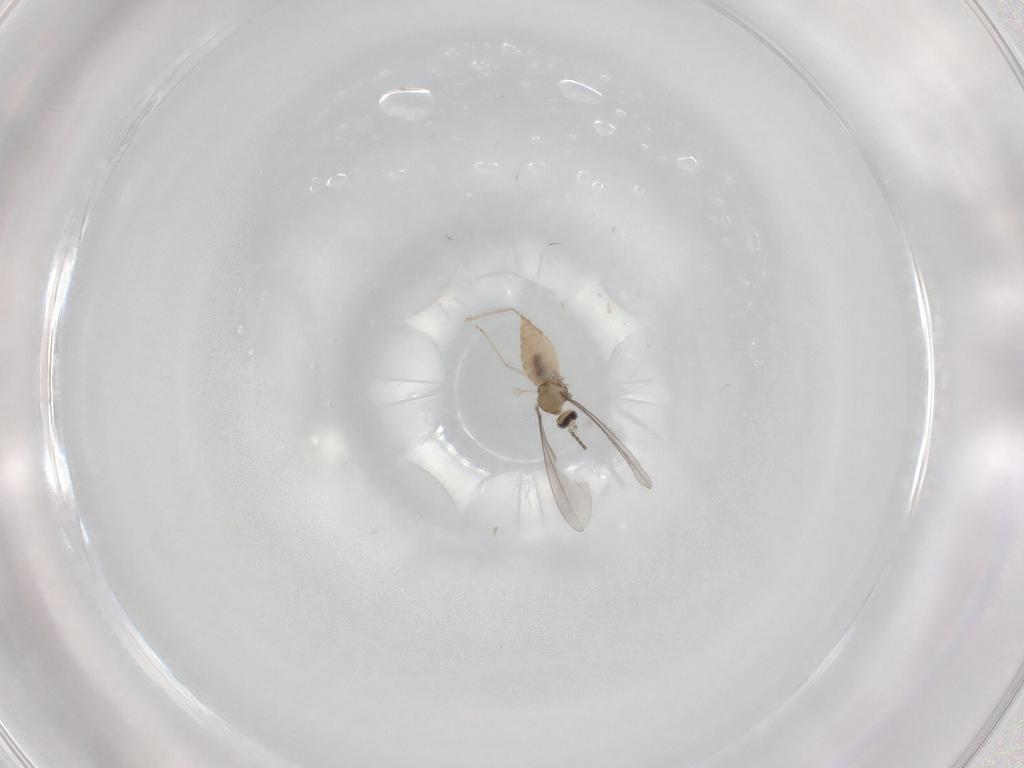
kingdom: Animalia
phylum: Arthropoda
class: Insecta
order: Diptera
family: Cecidomyiidae
